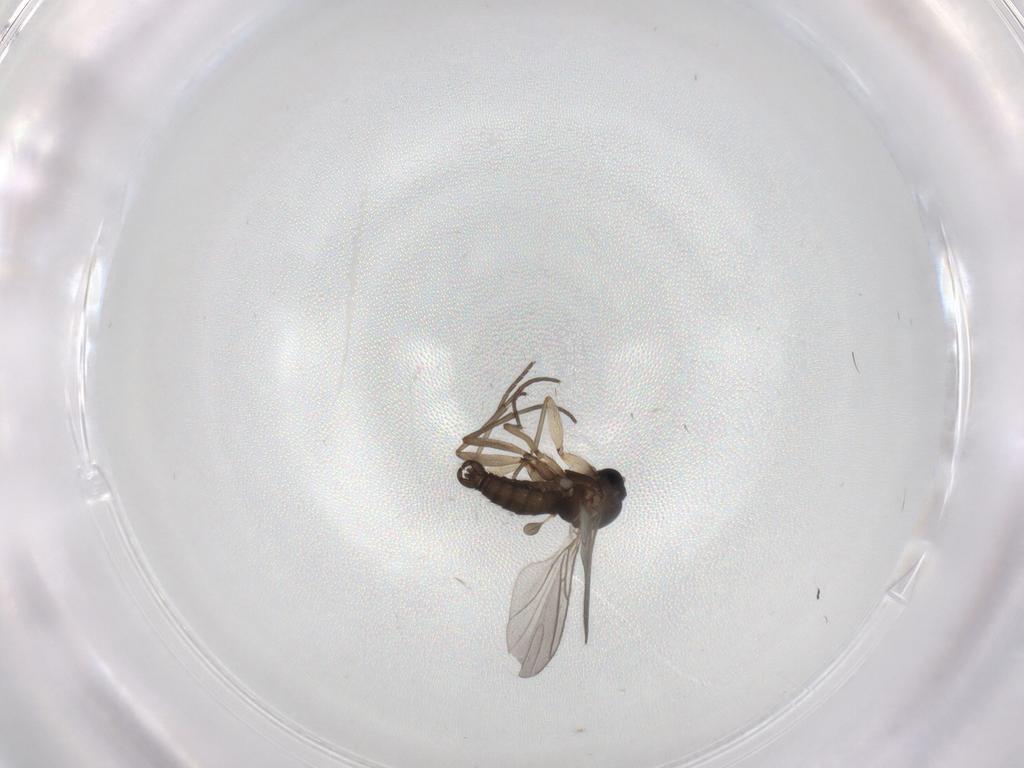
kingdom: Animalia
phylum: Arthropoda
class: Insecta
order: Diptera
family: Sciaridae
